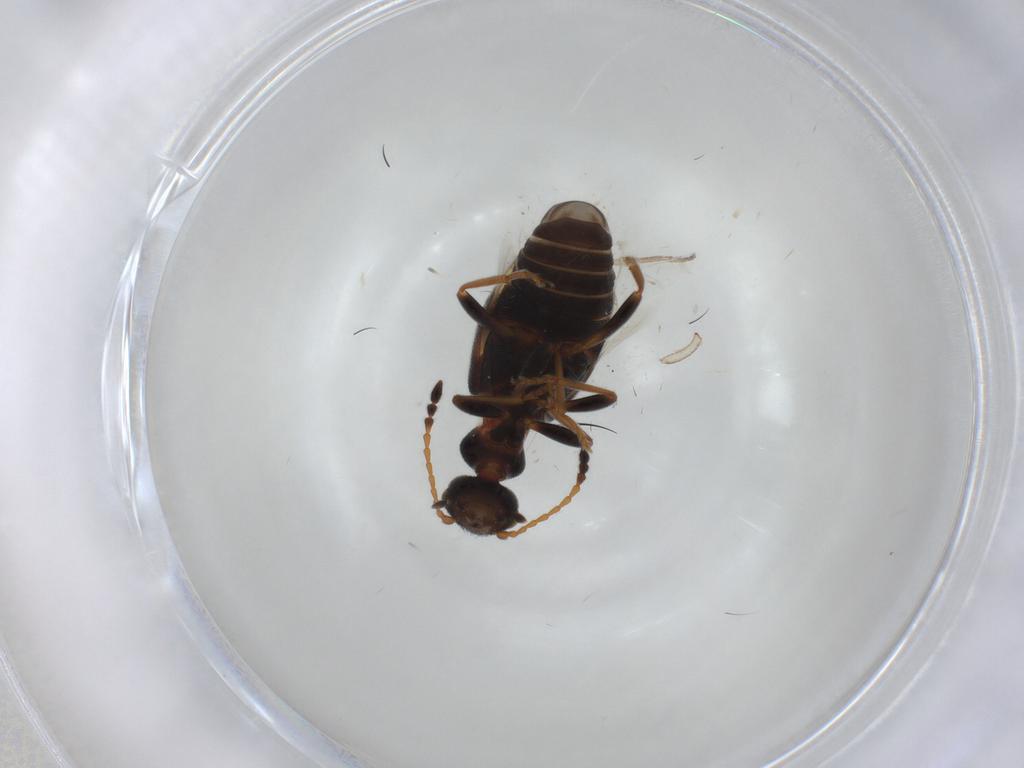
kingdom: Animalia
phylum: Arthropoda
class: Insecta
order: Coleoptera
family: Anthicidae
